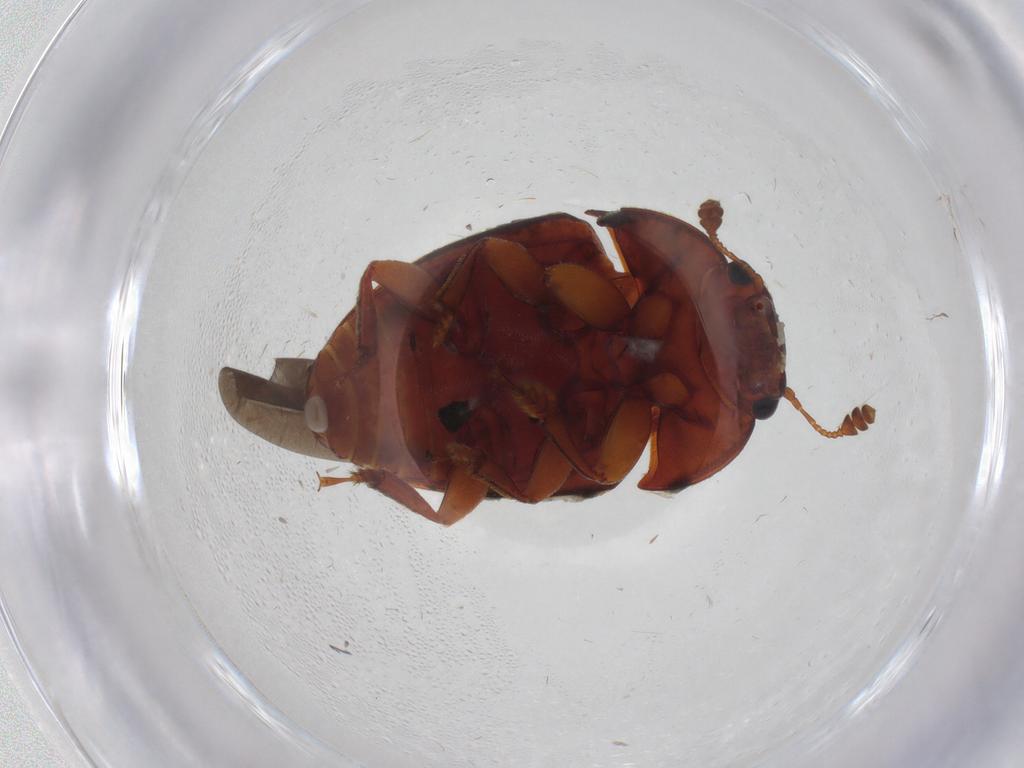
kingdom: Animalia
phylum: Arthropoda
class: Insecta
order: Coleoptera
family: Nitidulidae
